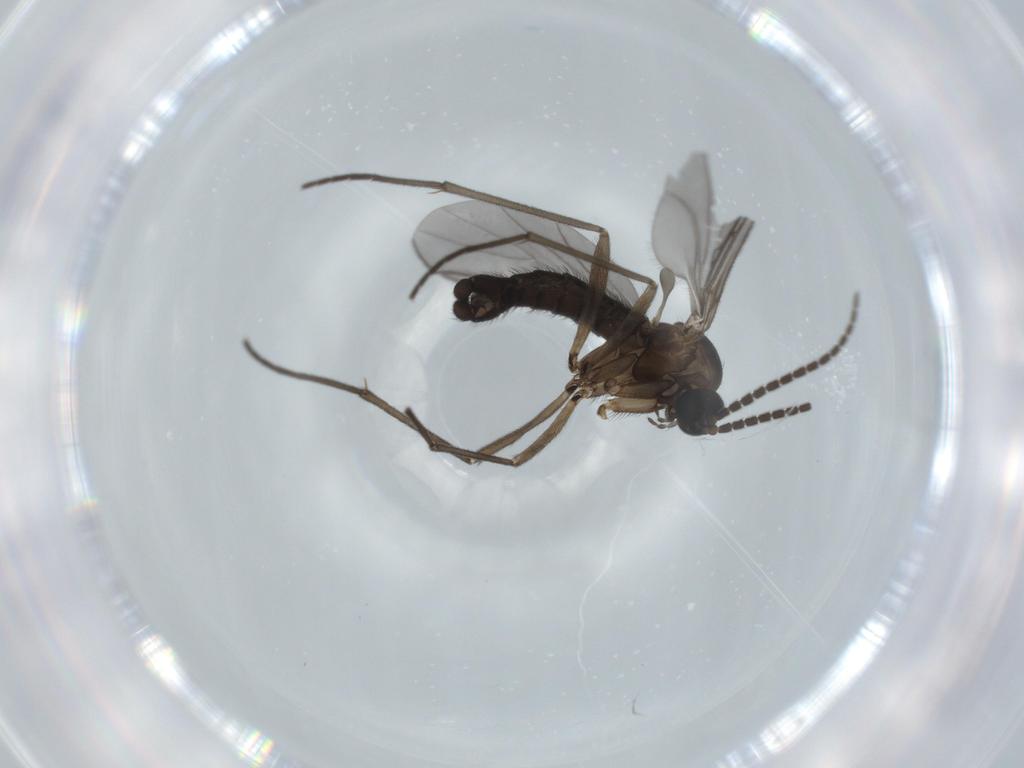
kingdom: Animalia
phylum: Arthropoda
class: Insecta
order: Diptera
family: Sciaridae
